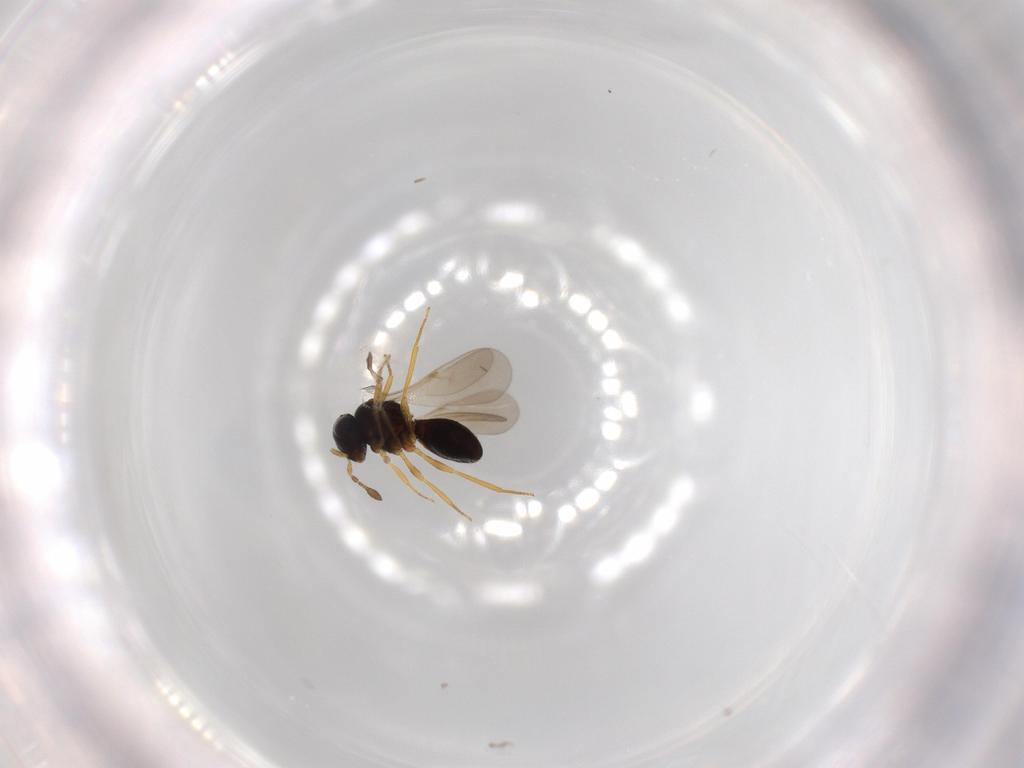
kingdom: Animalia
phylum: Arthropoda
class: Insecta
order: Hymenoptera
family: Scelionidae
